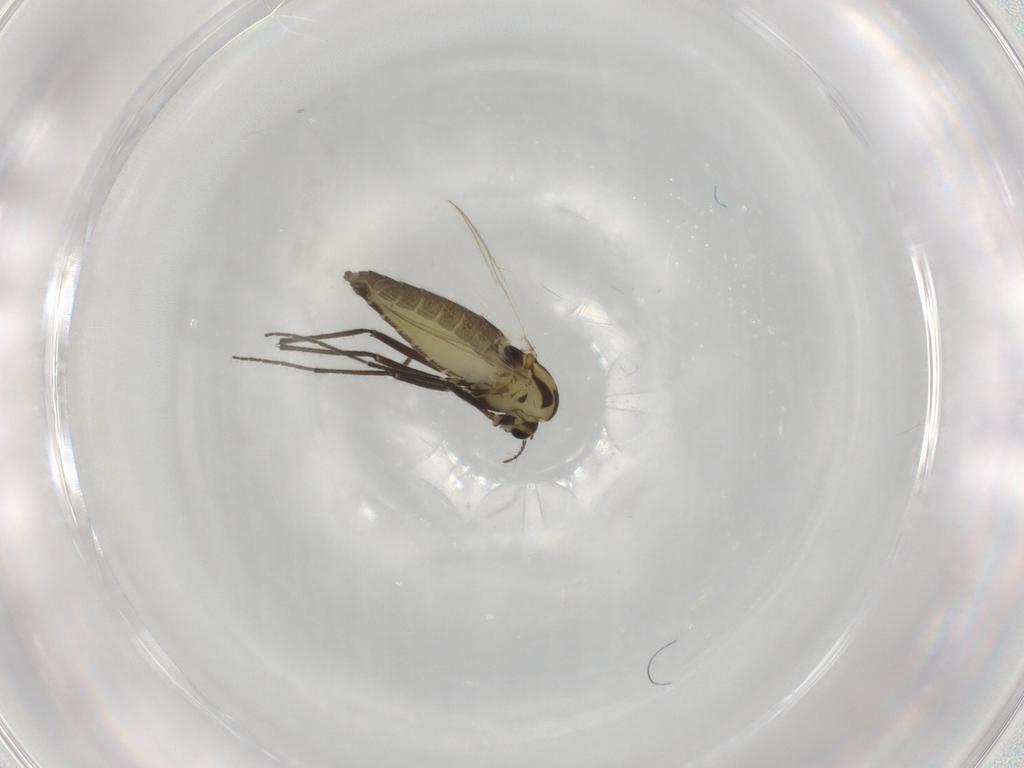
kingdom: Animalia
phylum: Arthropoda
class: Insecta
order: Diptera
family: Chironomidae
